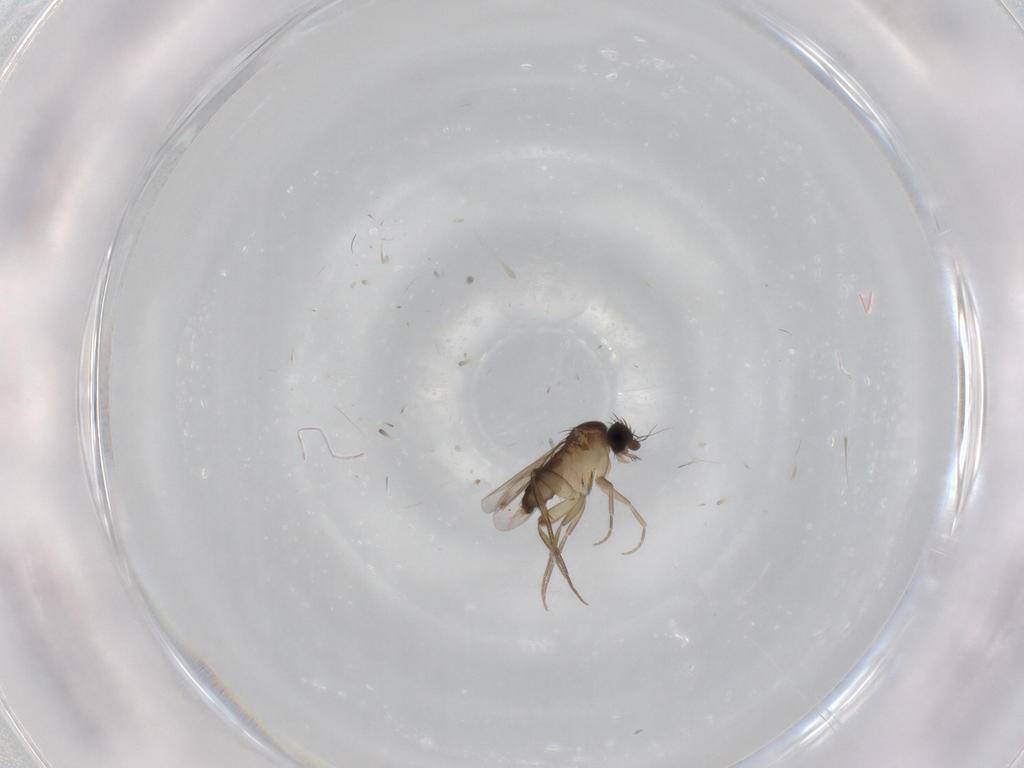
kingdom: Animalia
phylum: Arthropoda
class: Insecta
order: Diptera
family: Phoridae
